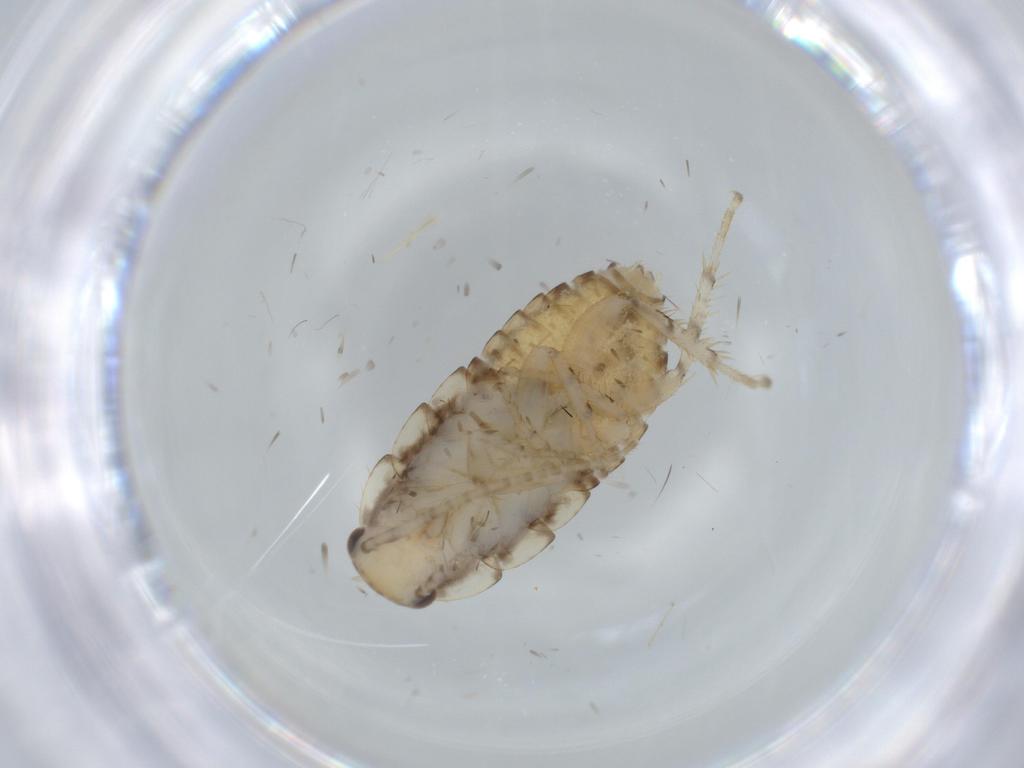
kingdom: Animalia
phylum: Arthropoda
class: Insecta
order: Blattodea
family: Ectobiidae
